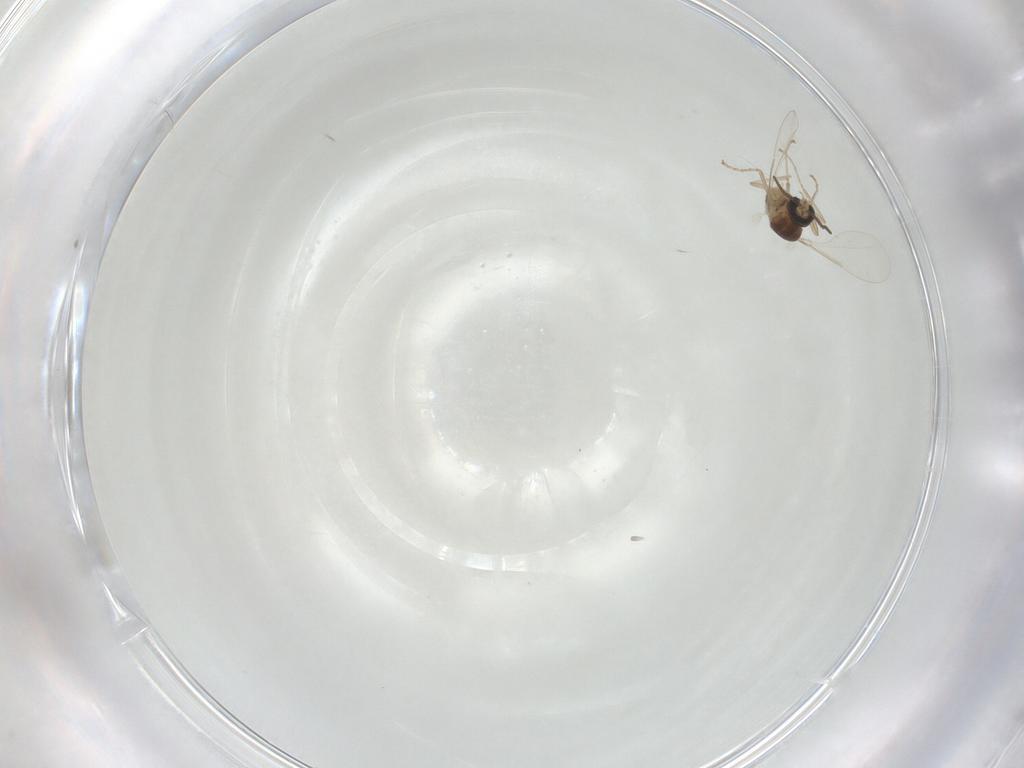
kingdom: Animalia
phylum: Arthropoda
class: Insecta
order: Diptera
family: Cecidomyiidae
